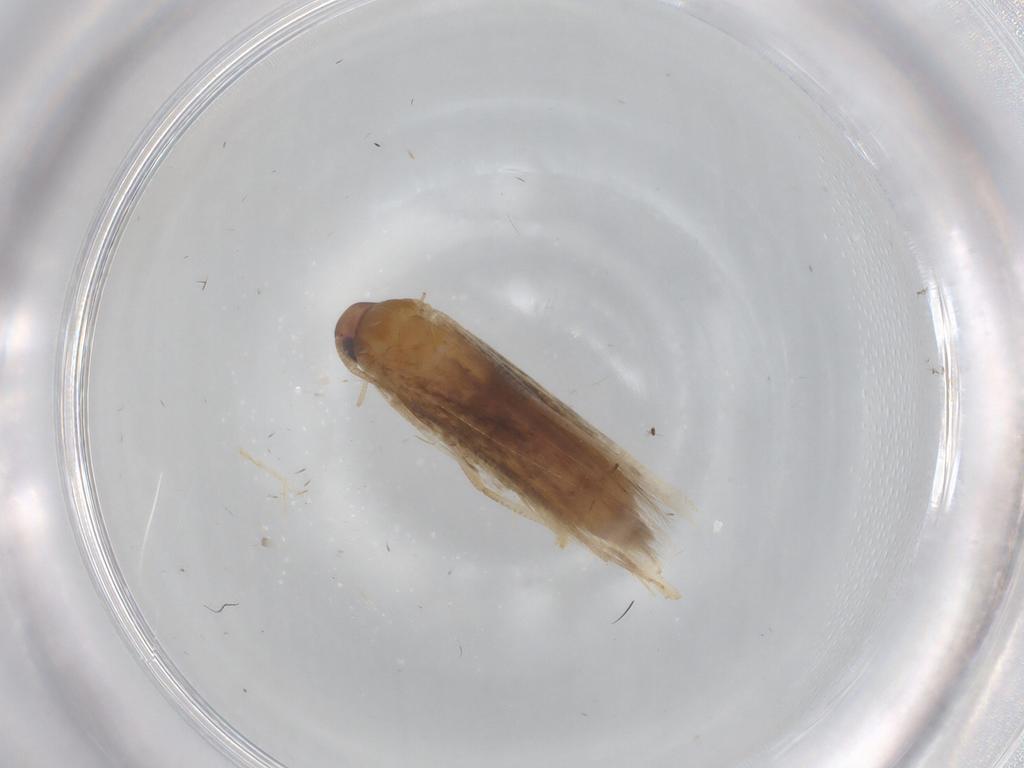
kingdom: Animalia
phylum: Arthropoda
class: Insecta
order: Lepidoptera
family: Cosmopterigidae
